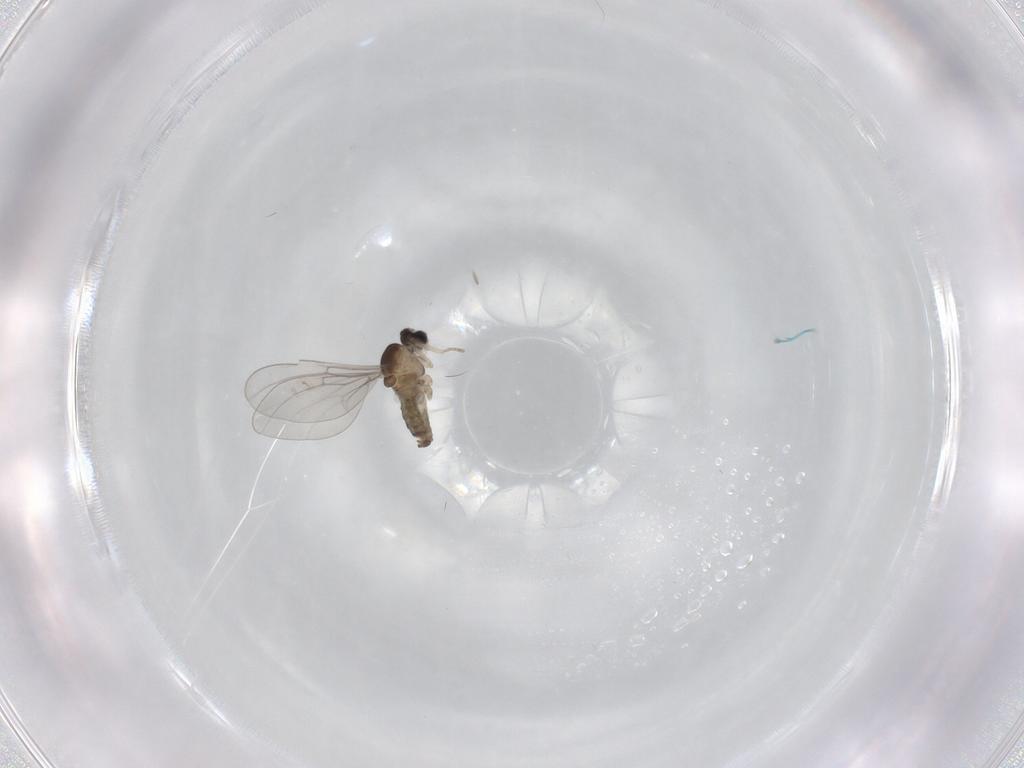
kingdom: Animalia
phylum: Arthropoda
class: Insecta
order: Diptera
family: Cecidomyiidae
